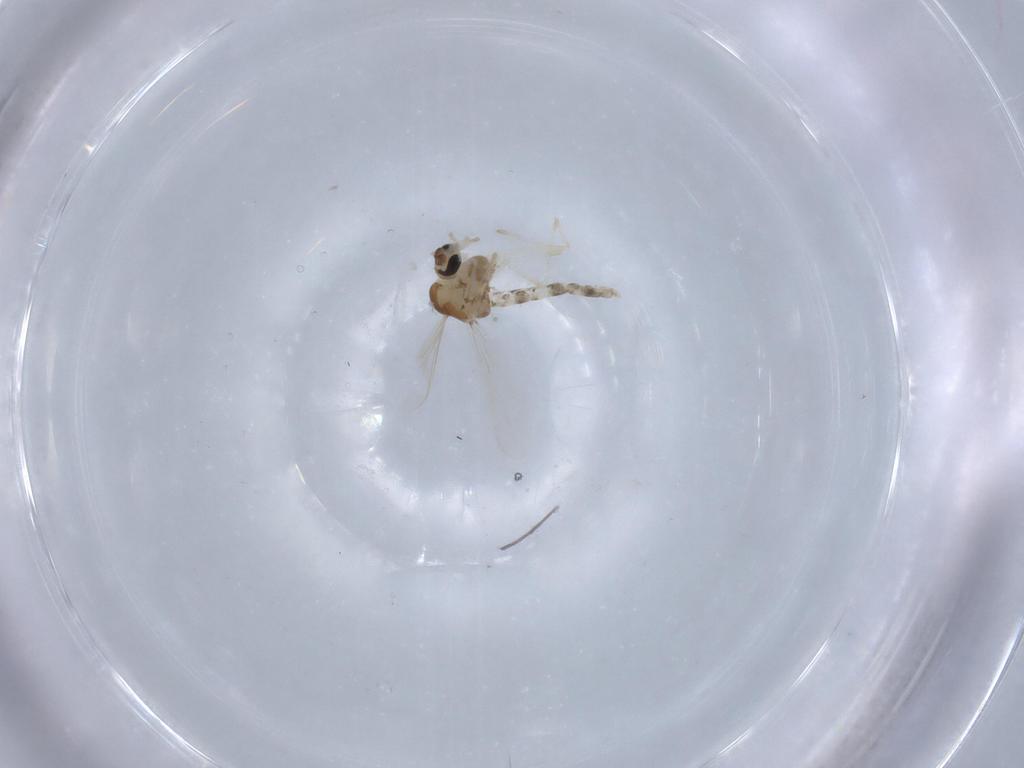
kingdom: Animalia
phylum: Arthropoda
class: Insecta
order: Diptera
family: Chironomidae
